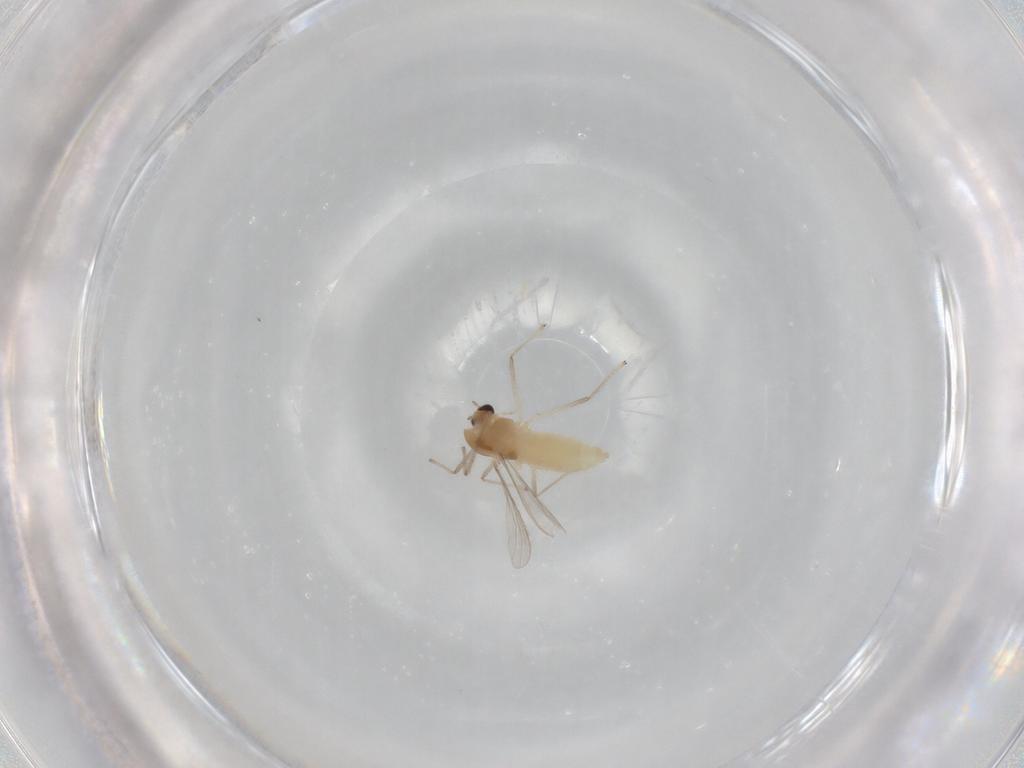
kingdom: Animalia
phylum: Arthropoda
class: Insecta
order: Diptera
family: Chironomidae
